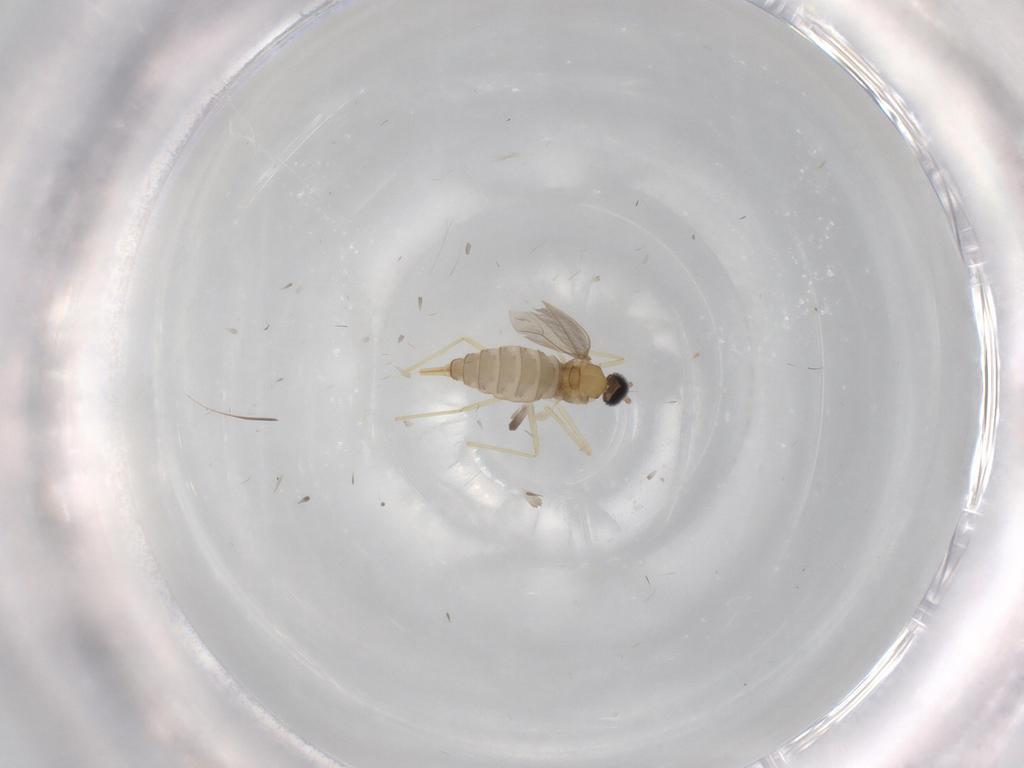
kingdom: Animalia
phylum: Arthropoda
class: Insecta
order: Diptera
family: Cecidomyiidae
